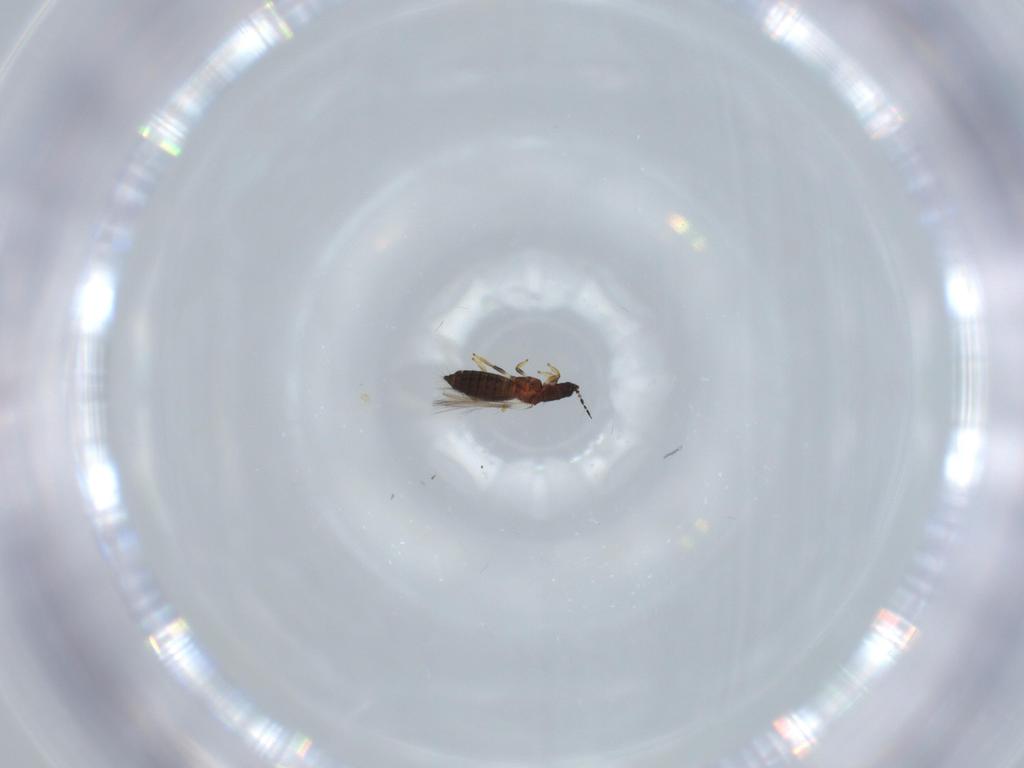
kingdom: Animalia
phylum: Arthropoda
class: Insecta
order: Thysanoptera
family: Thripidae
